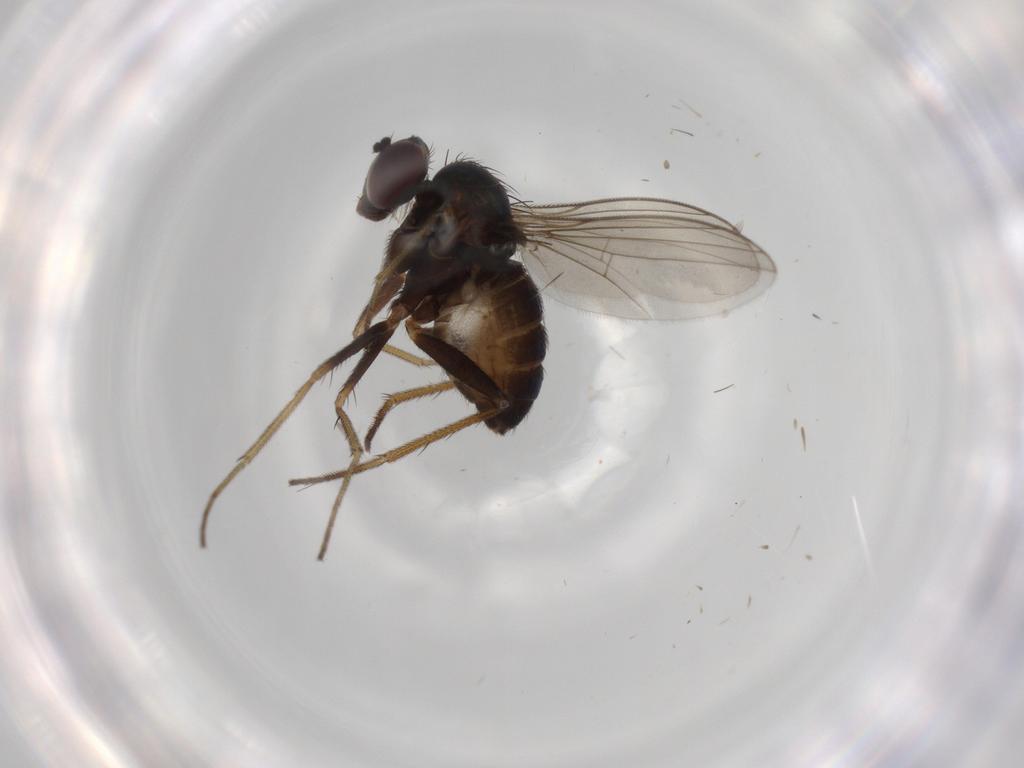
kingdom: Animalia
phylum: Arthropoda
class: Insecta
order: Diptera
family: Dolichopodidae
